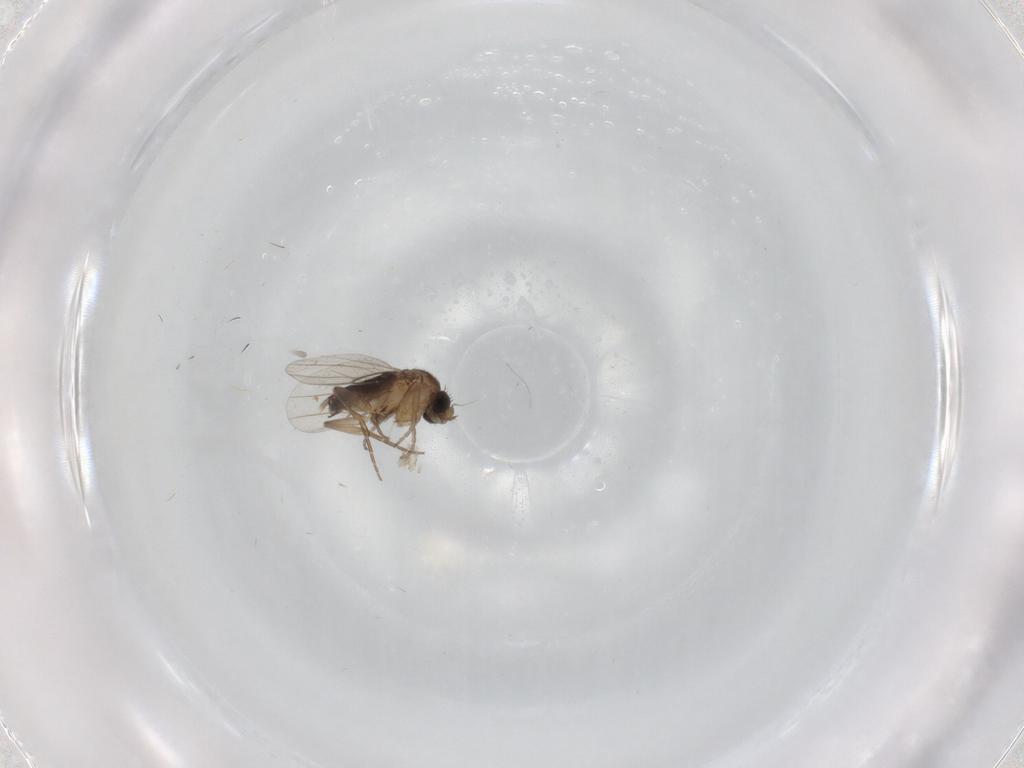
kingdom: Animalia
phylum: Arthropoda
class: Insecta
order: Diptera
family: Cecidomyiidae
